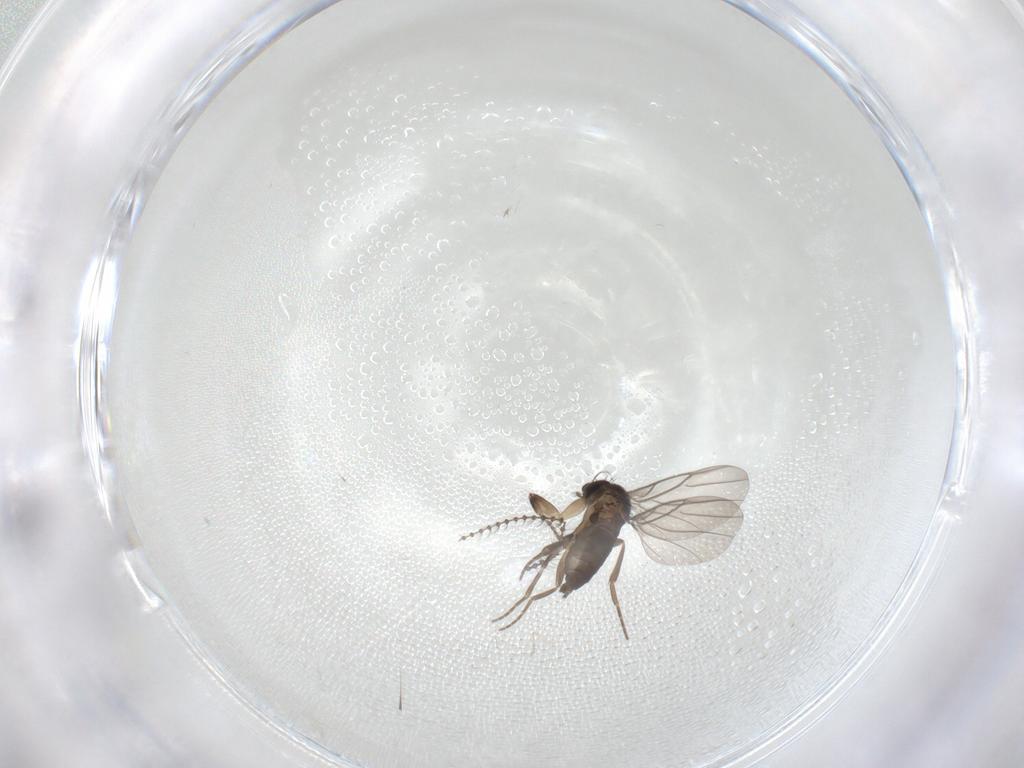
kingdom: Animalia
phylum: Arthropoda
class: Insecta
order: Diptera
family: Phoridae
